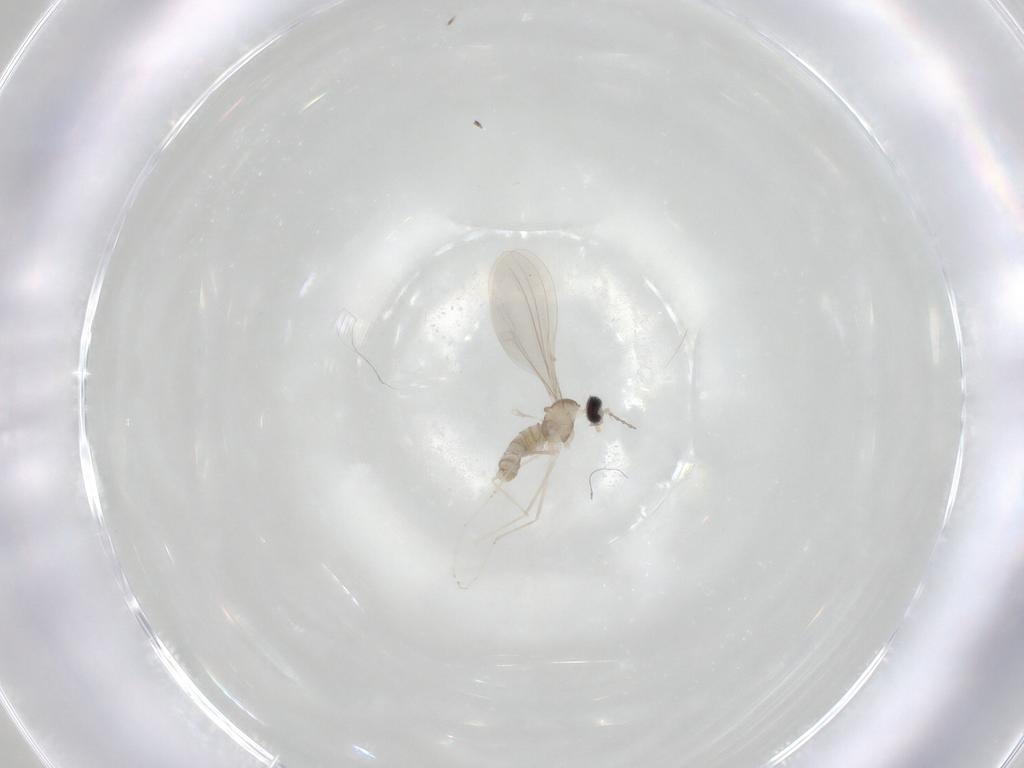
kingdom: Animalia
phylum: Arthropoda
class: Insecta
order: Diptera
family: Cecidomyiidae
